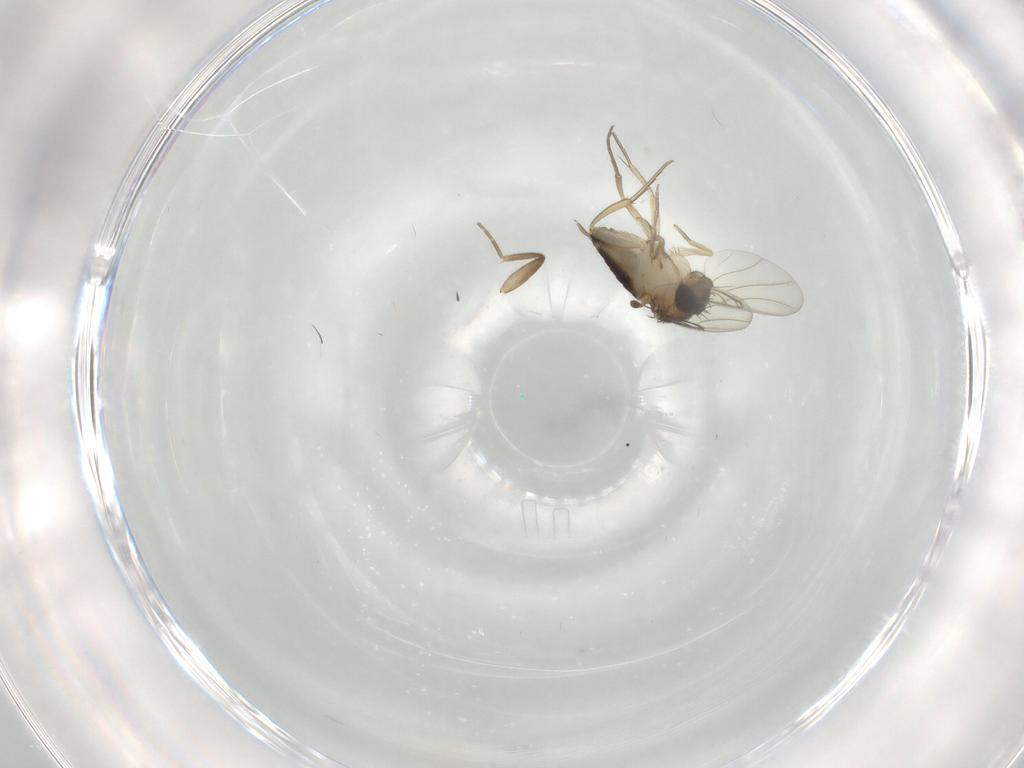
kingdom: Animalia
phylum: Arthropoda
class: Insecta
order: Diptera
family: Phoridae
